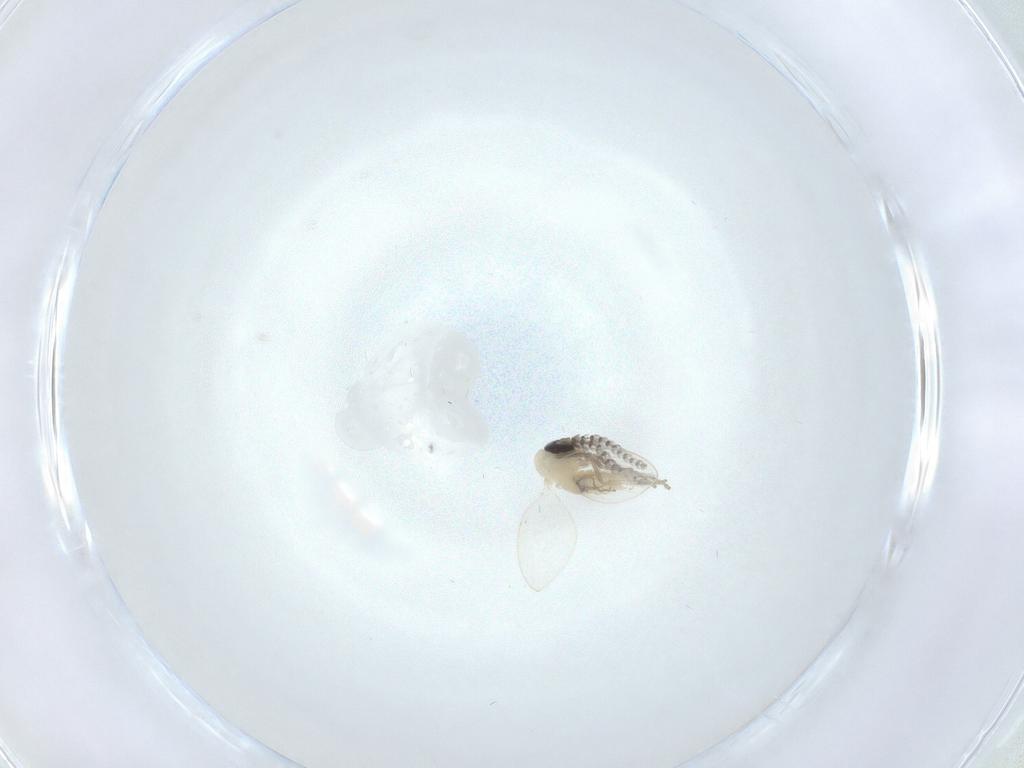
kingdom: Animalia
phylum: Arthropoda
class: Insecta
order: Diptera
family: Psychodidae
